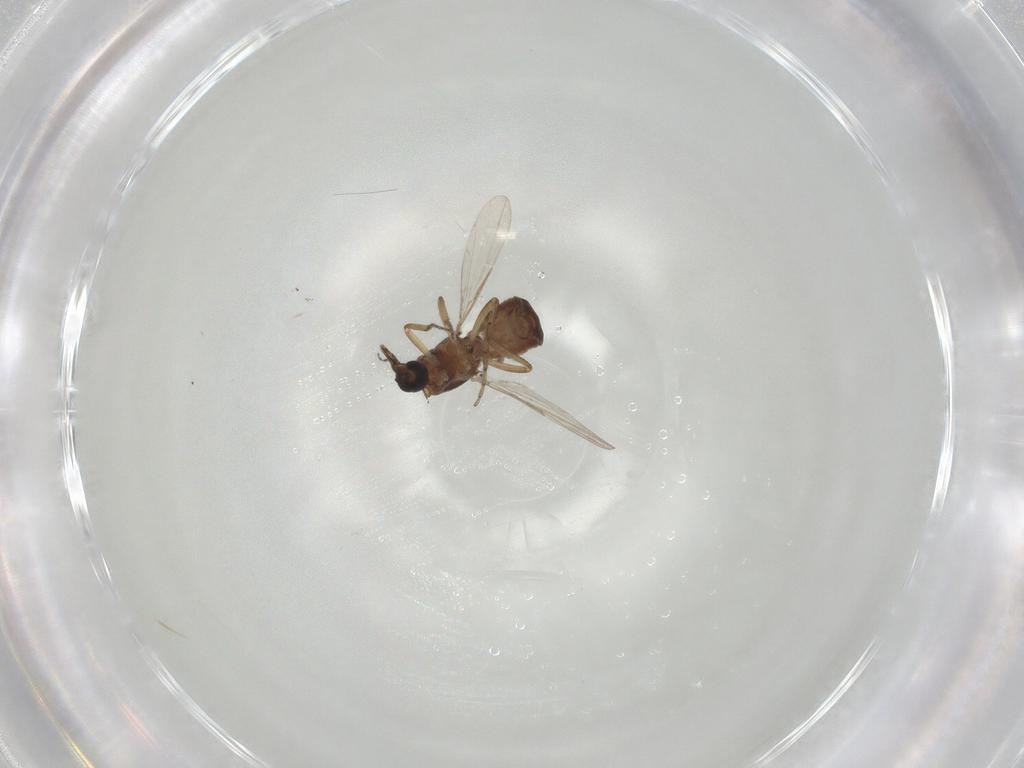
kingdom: Animalia
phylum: Arthropoda
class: Insecta
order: Diptera
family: Ceratopogonidae
